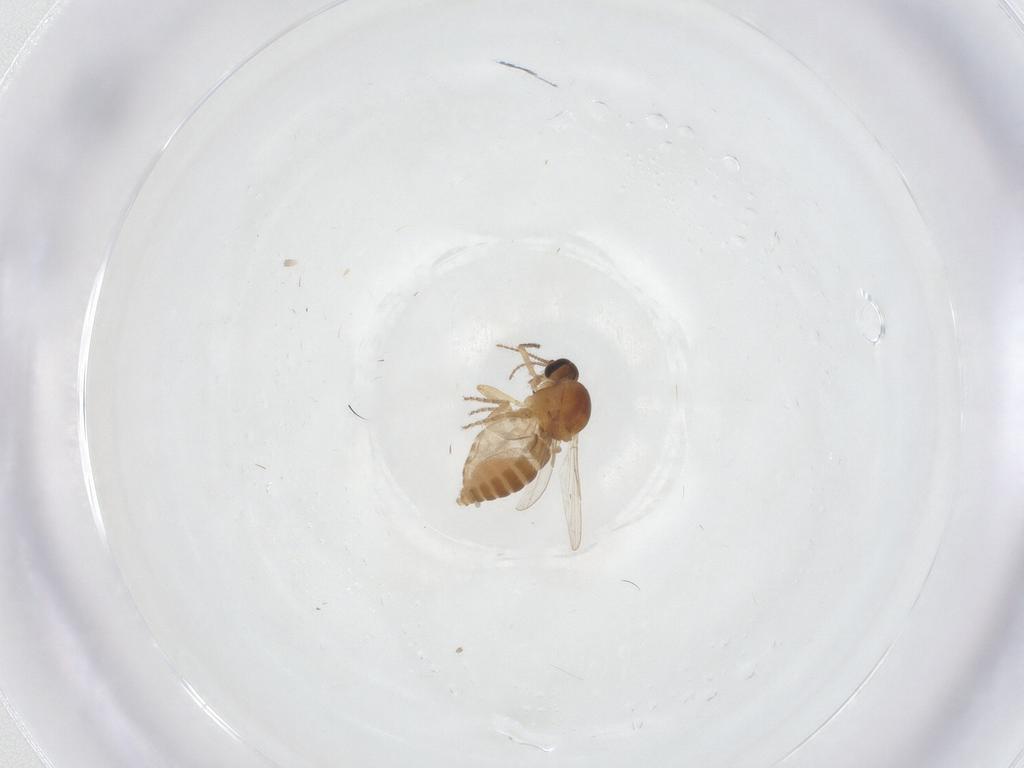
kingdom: Animalia
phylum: Arthropoda
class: Insecta
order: Diptera
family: Ceratopogonidae
